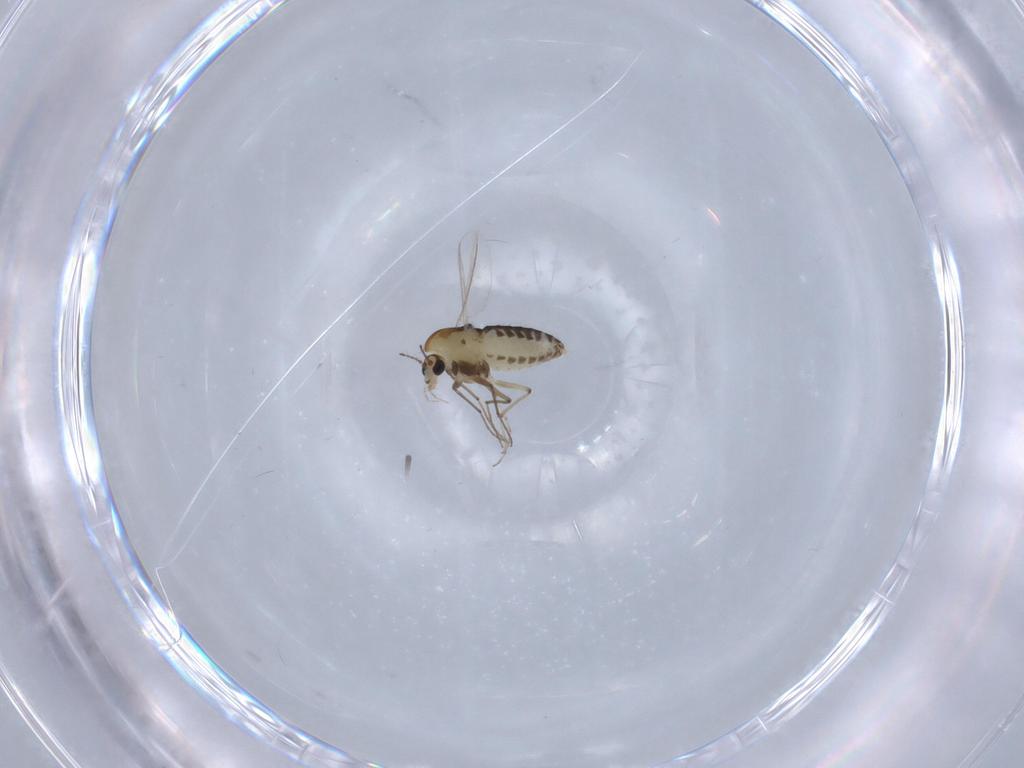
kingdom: Animalia
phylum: Arthropoda
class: Insecta
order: Diptera
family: Chironomidae
